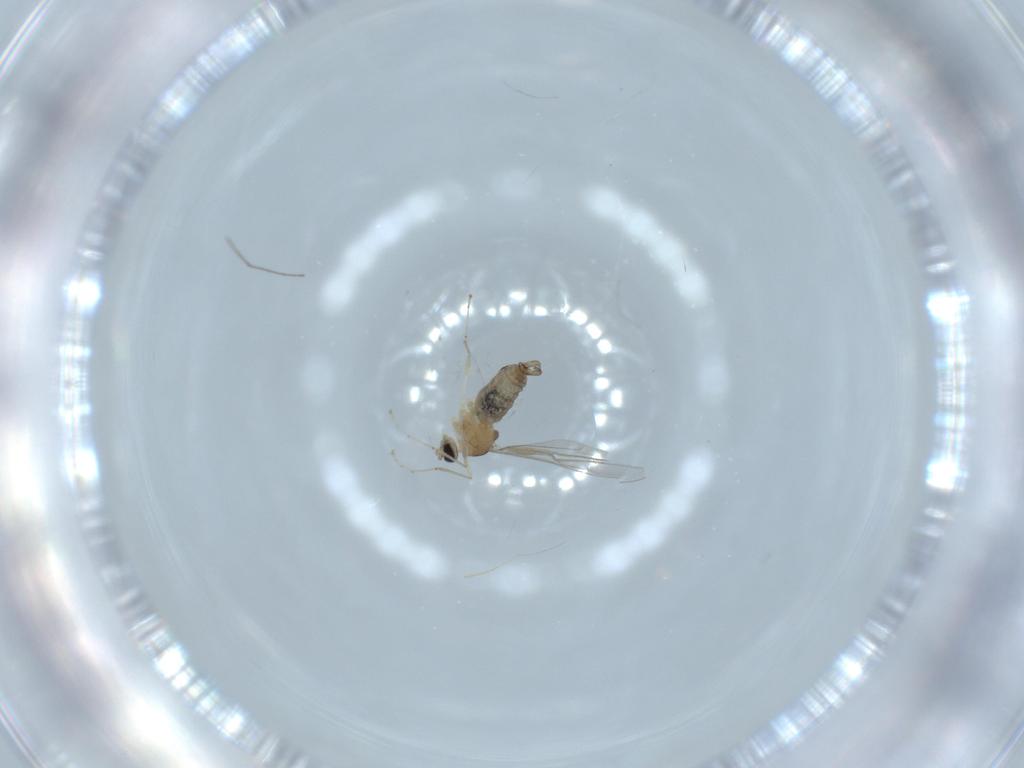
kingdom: Animalia
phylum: Arthropoda
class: Insecta
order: Diptera
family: Cecidomyiidae
